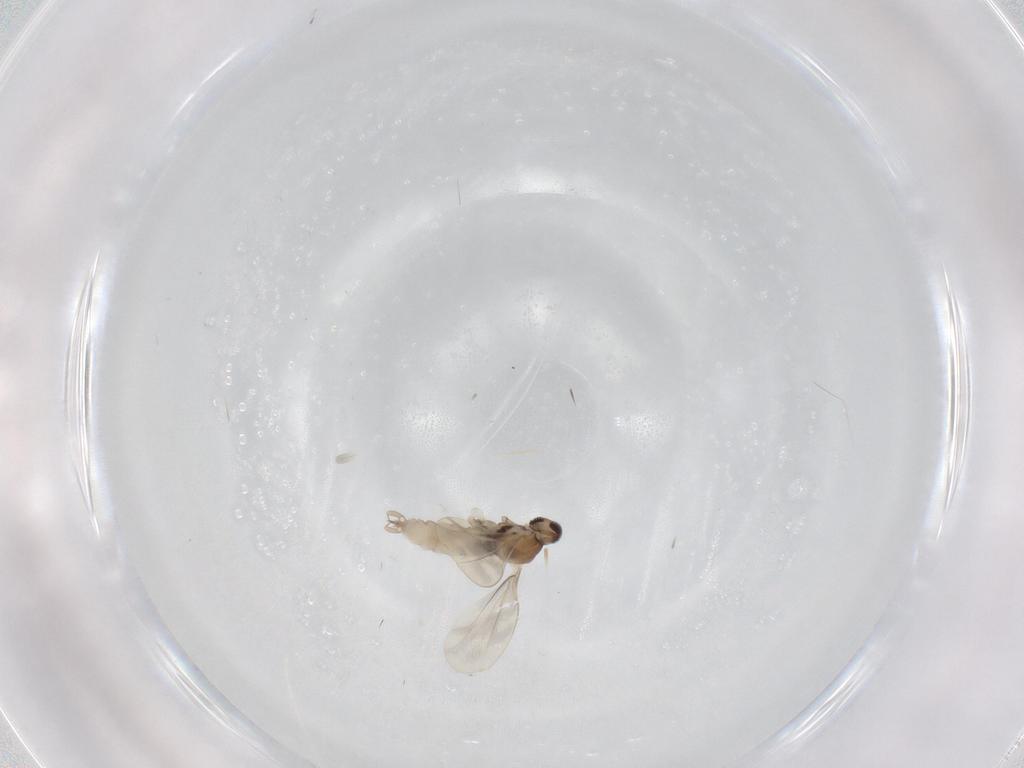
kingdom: Animalia
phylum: Arthropoda
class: Insecta
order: Diptera
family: Cecidomyiidae
